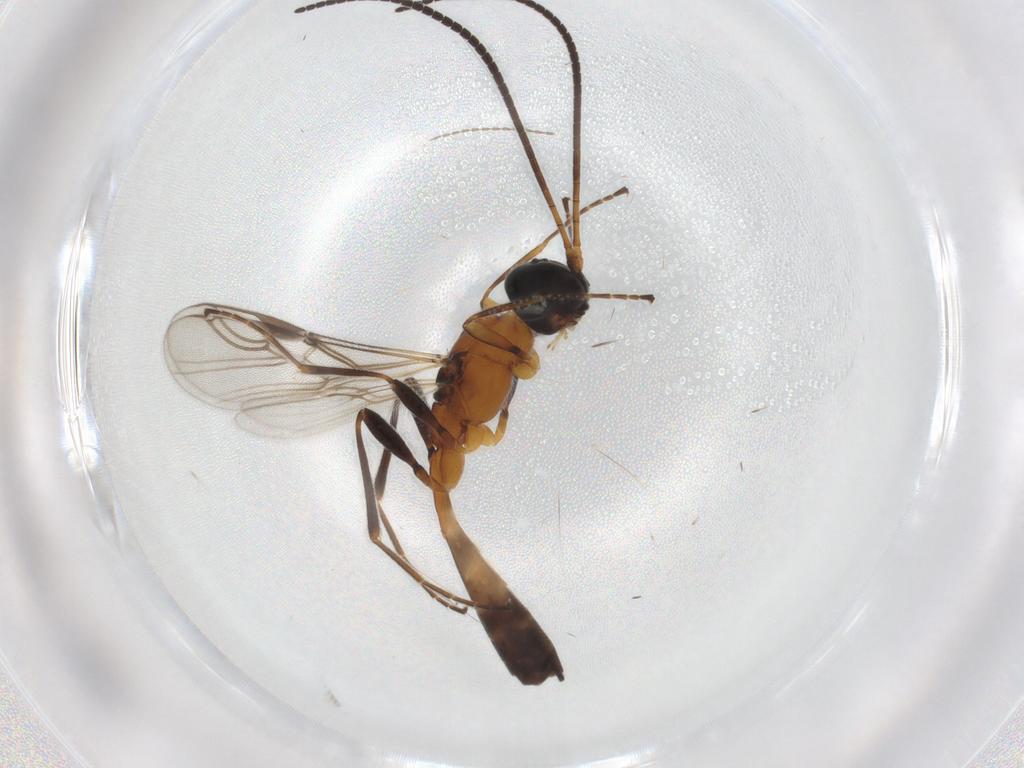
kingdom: Animalia
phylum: Arthropoda
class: Insecta
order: Hymenoptera
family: Braconidae
